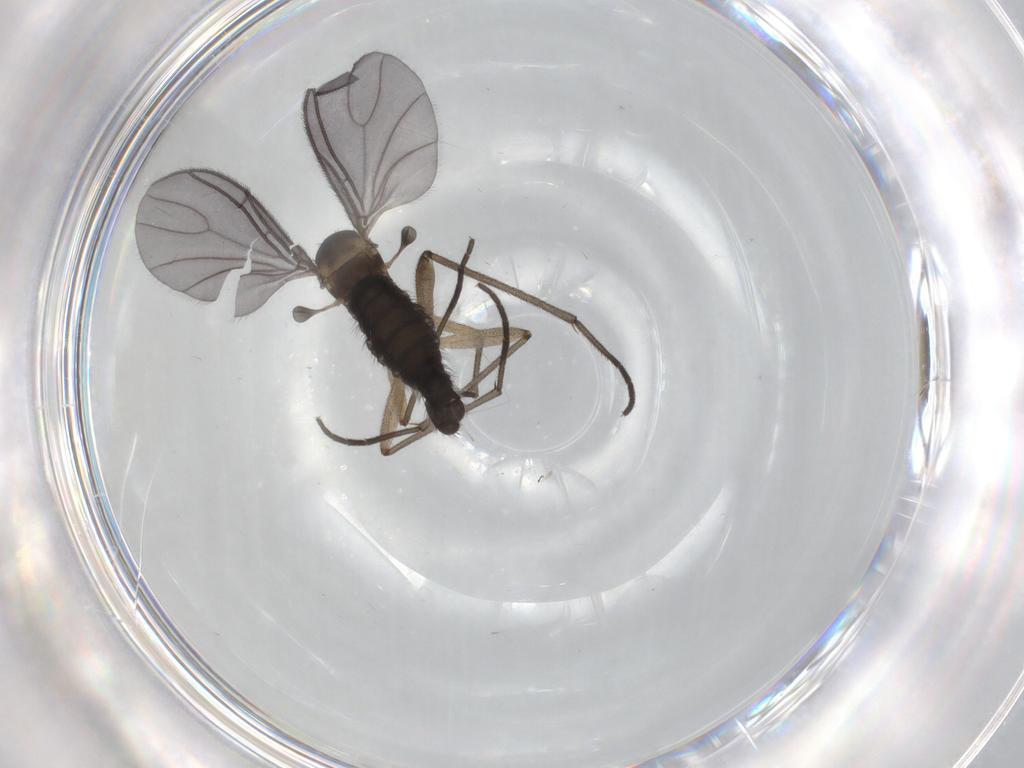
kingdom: Animalia
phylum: Arthropoda
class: Insecta
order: Diptera
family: Sciaridae
